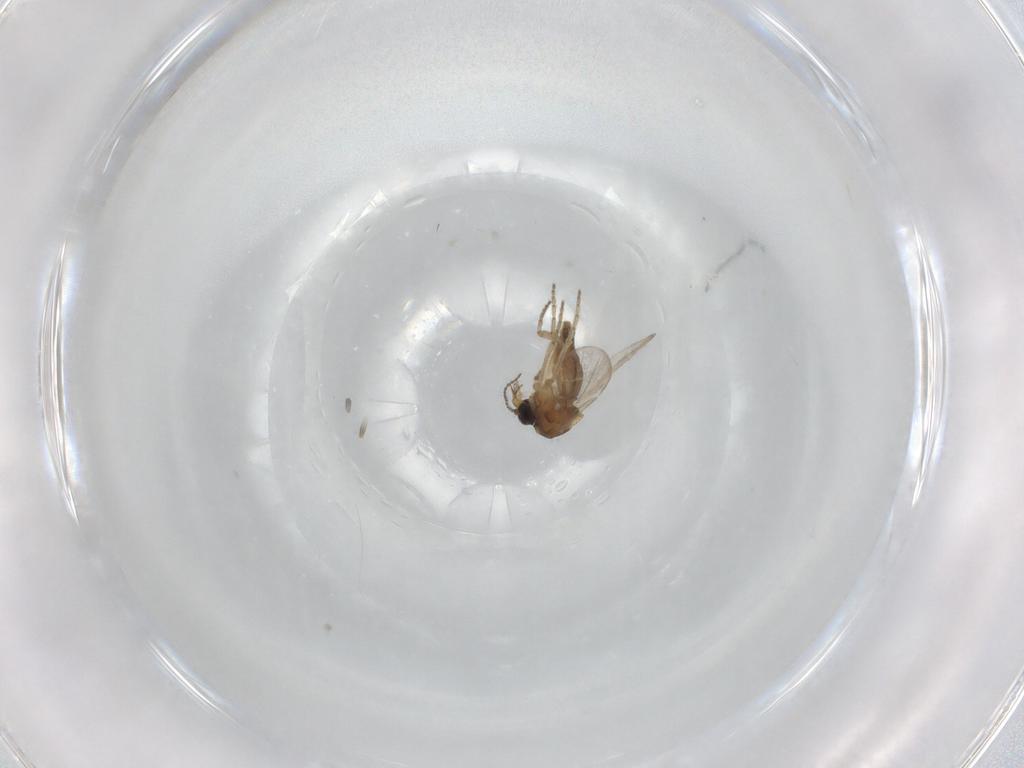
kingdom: Animalia
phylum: Arthropoda
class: Insecta
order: Diptera
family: Ceratopogonidae
